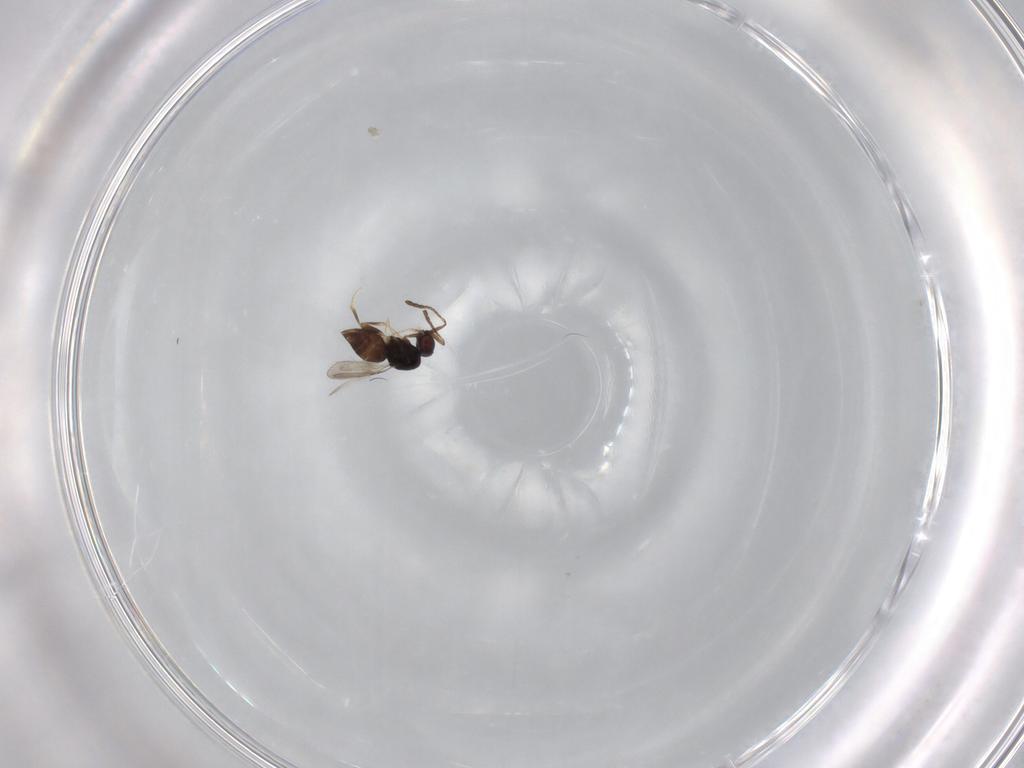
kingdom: Animalia
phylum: Arthropoda
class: Insecta
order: Hymenoptera
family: Ceraphronidae
